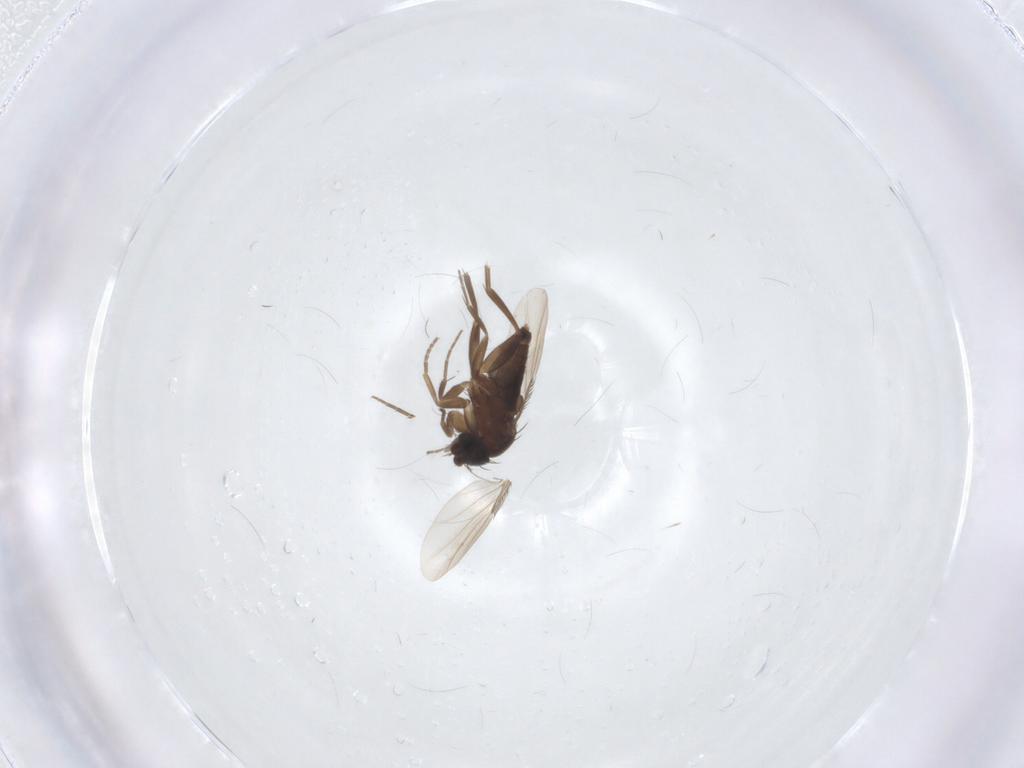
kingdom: Animalia
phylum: Arthropoda
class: Insecta
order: Diptera
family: Phoridae
